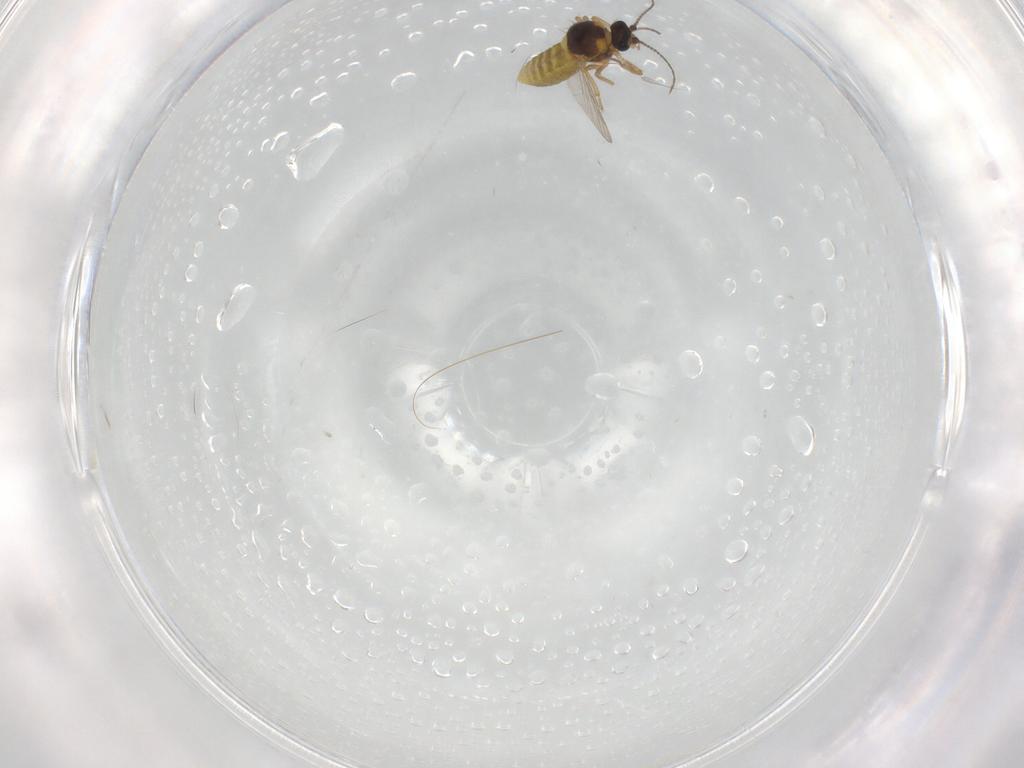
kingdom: Animalia
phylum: Arthropoda
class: Insecta
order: Diptera
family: Ceratopogonidae
